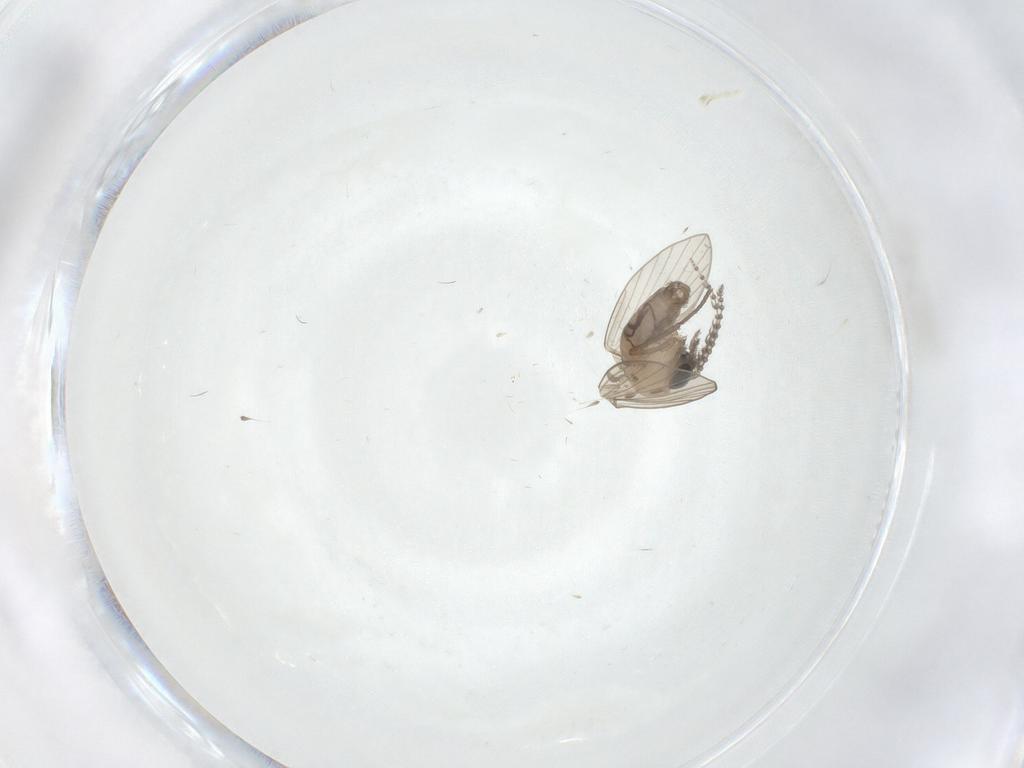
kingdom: Animalia
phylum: Arthropoda
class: Insecta
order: Diptera
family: Psychodidae
